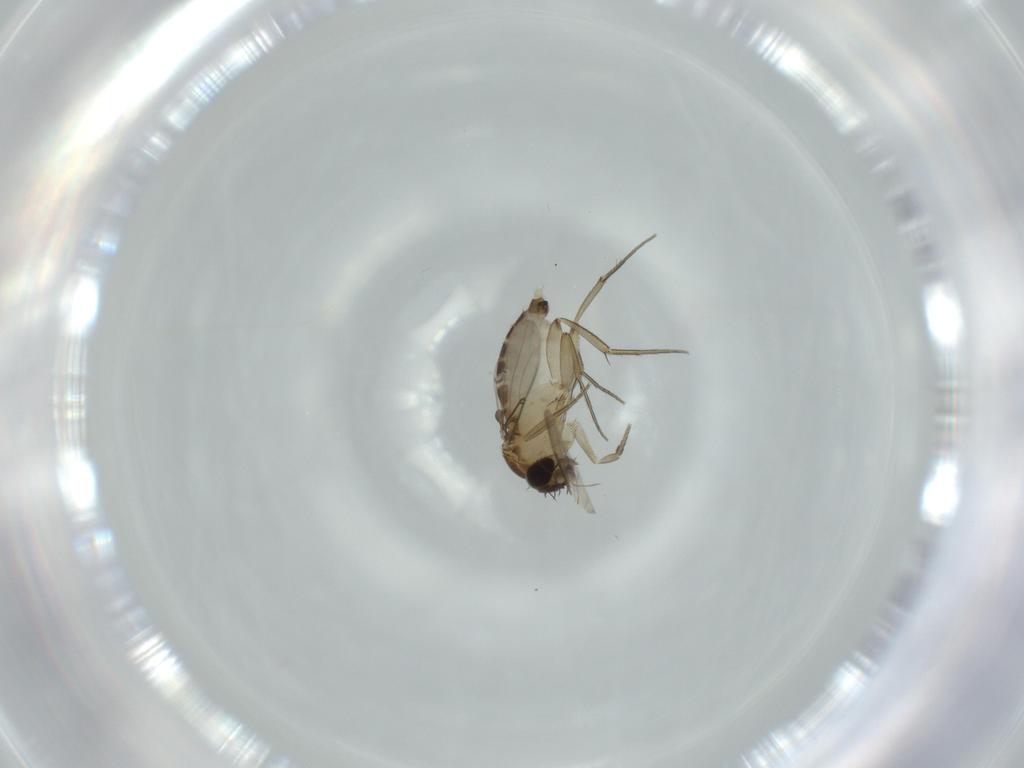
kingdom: Animalia
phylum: Arthropoda
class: Insecta
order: Diptera
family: Phoridae
